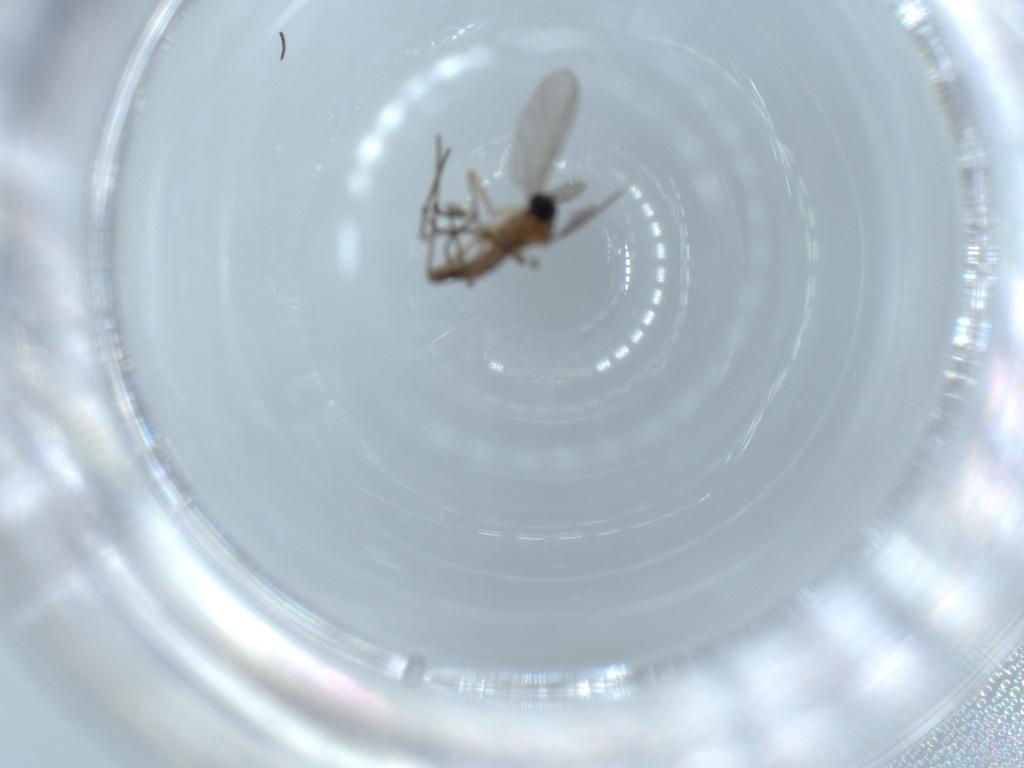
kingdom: Animalia
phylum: Arthropoda
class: Insecta
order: Diptera
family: Sciaridae
